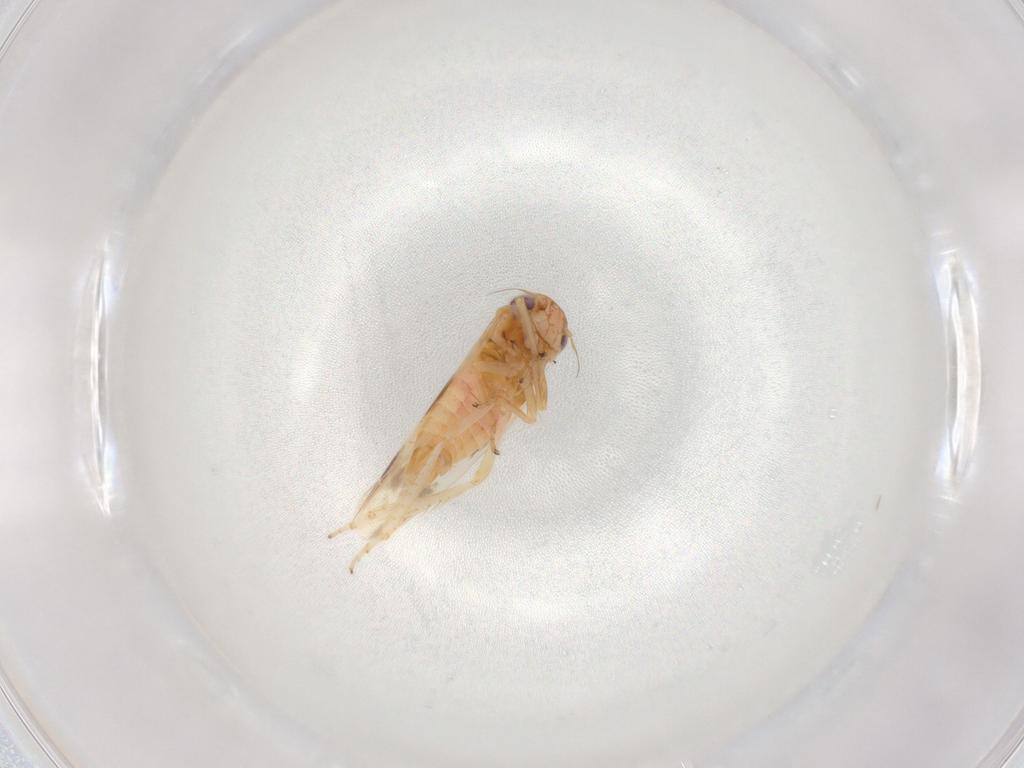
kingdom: Animalia
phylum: Arthropoda
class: Insecta
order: Hemiptera
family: Cicadellidae
